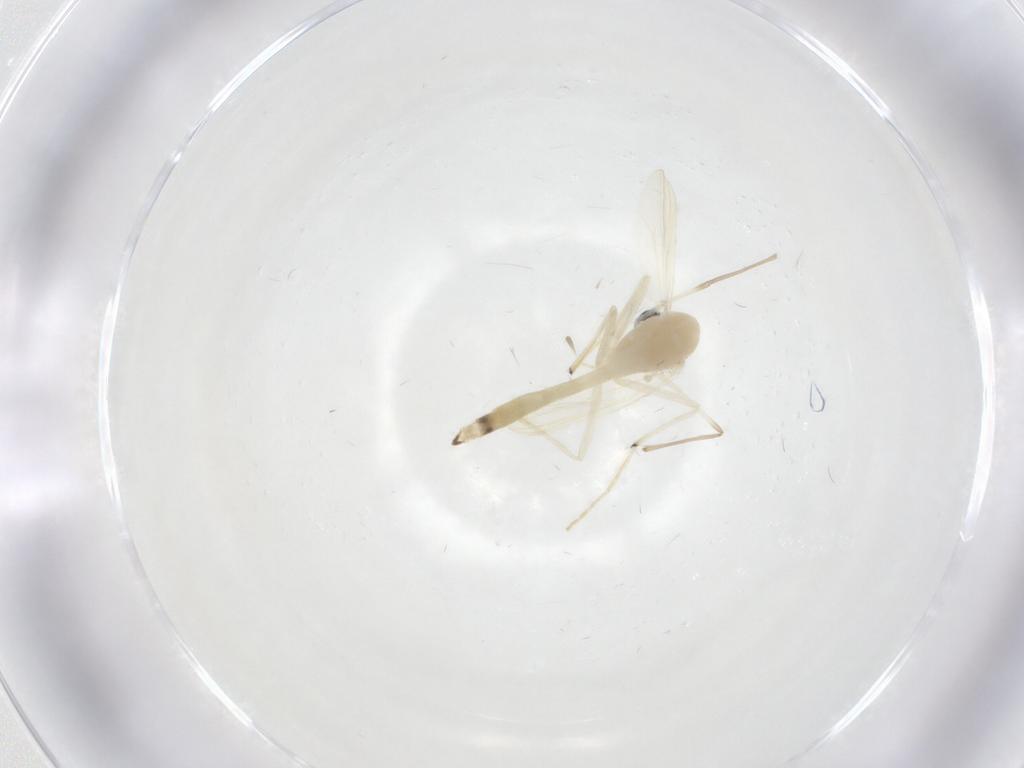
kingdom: Animalia
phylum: Arthropoda
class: Insecta
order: Diptera
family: Chironomidae
